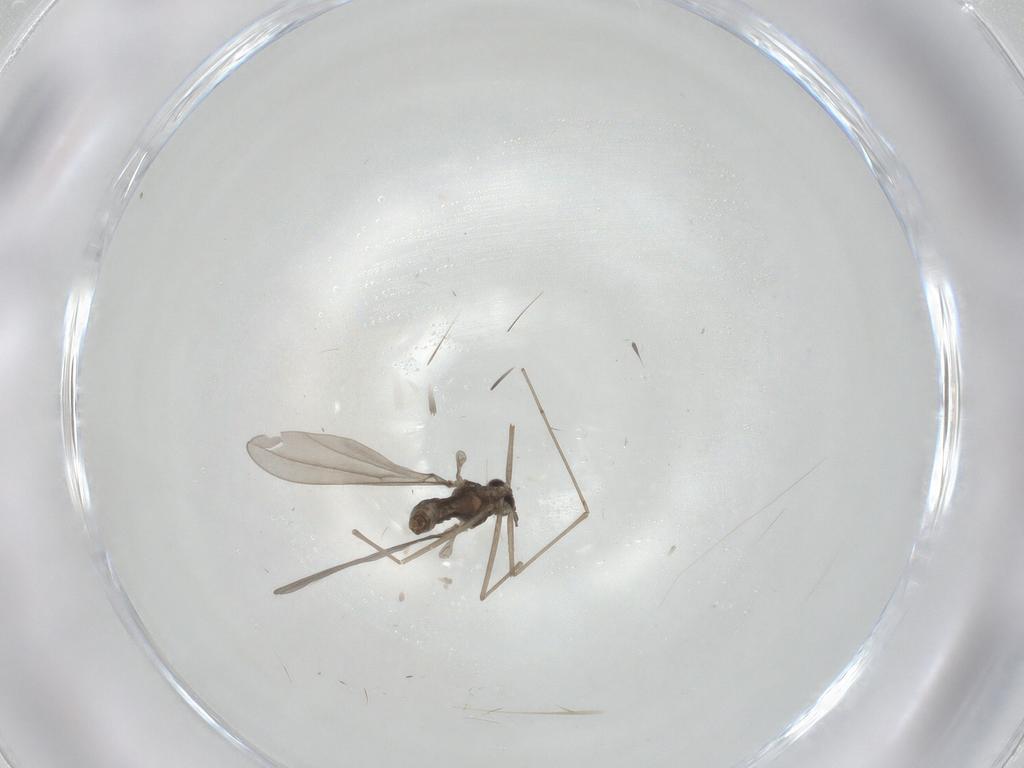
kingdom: Animalia
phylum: Arthropoda
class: Insecta
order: Diptera
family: Cecidomyiidae
